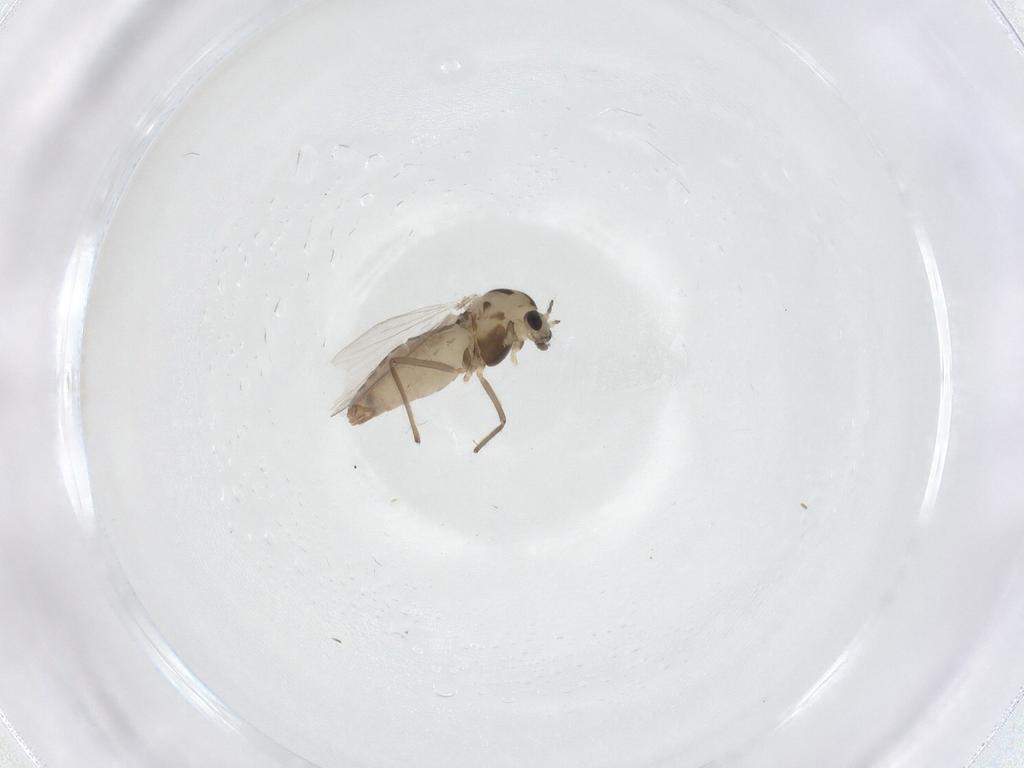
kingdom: Animalia
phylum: Arthropoda
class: Insecta
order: Diptera
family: Chironomidae
